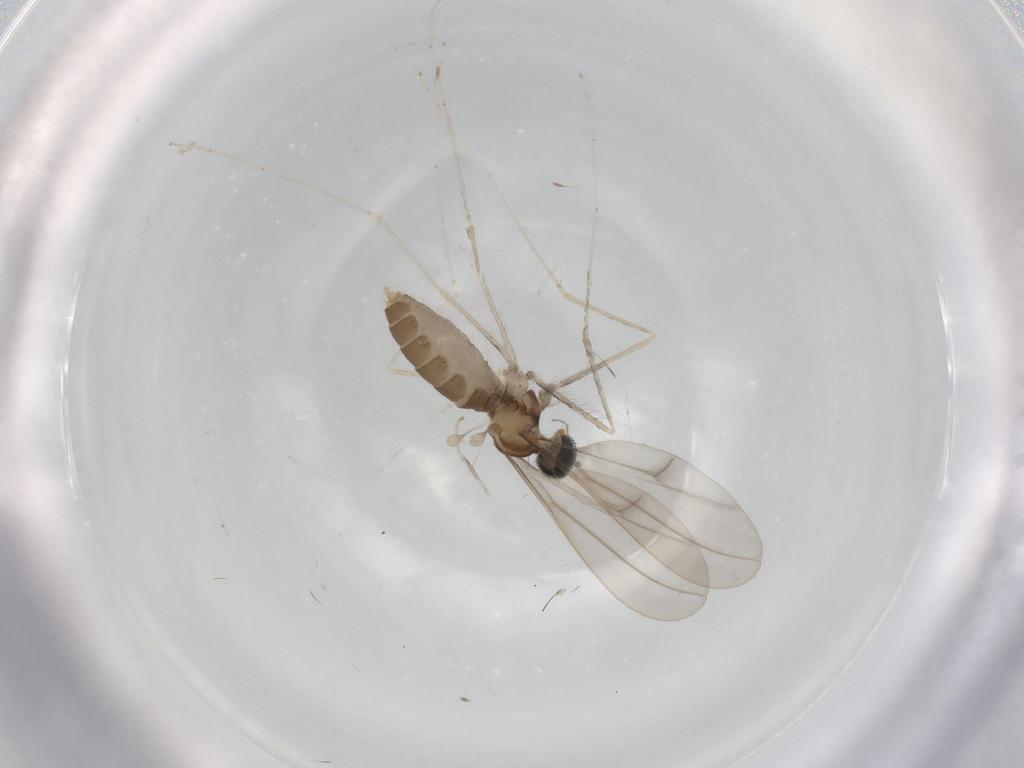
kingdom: Animalia
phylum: Arthropoda
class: Insecta
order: Diptera
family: Cecidomyiidae
